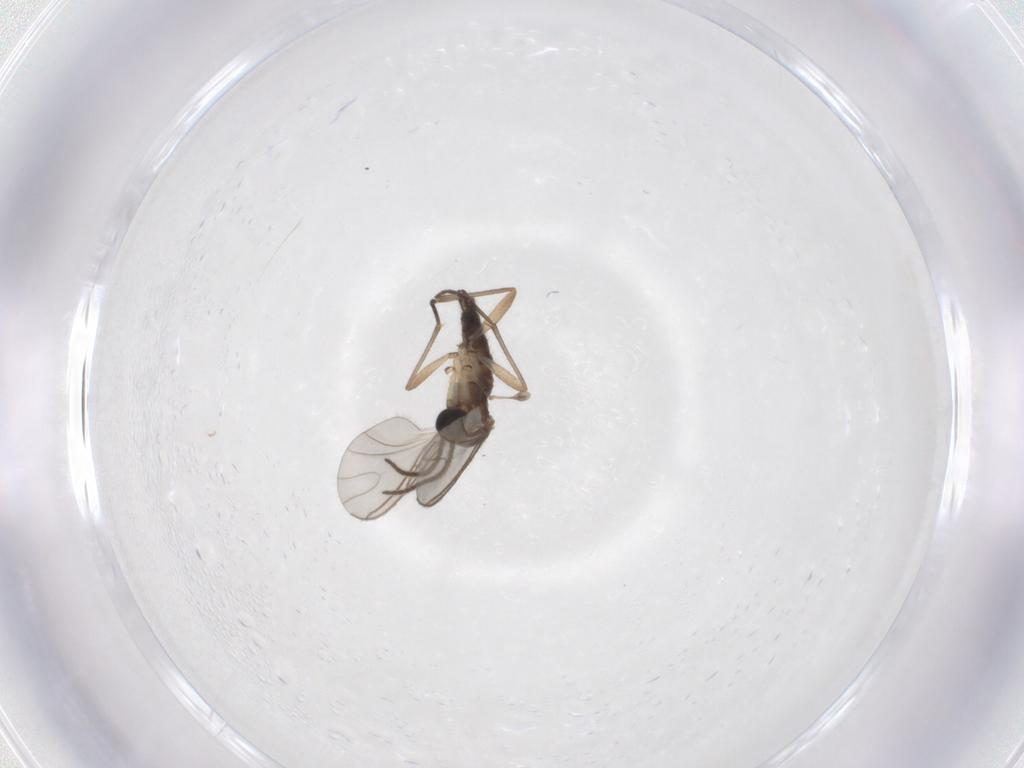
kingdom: Animalia
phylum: Arthropoda
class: Insecta
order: Diptera
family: Sciaridae
